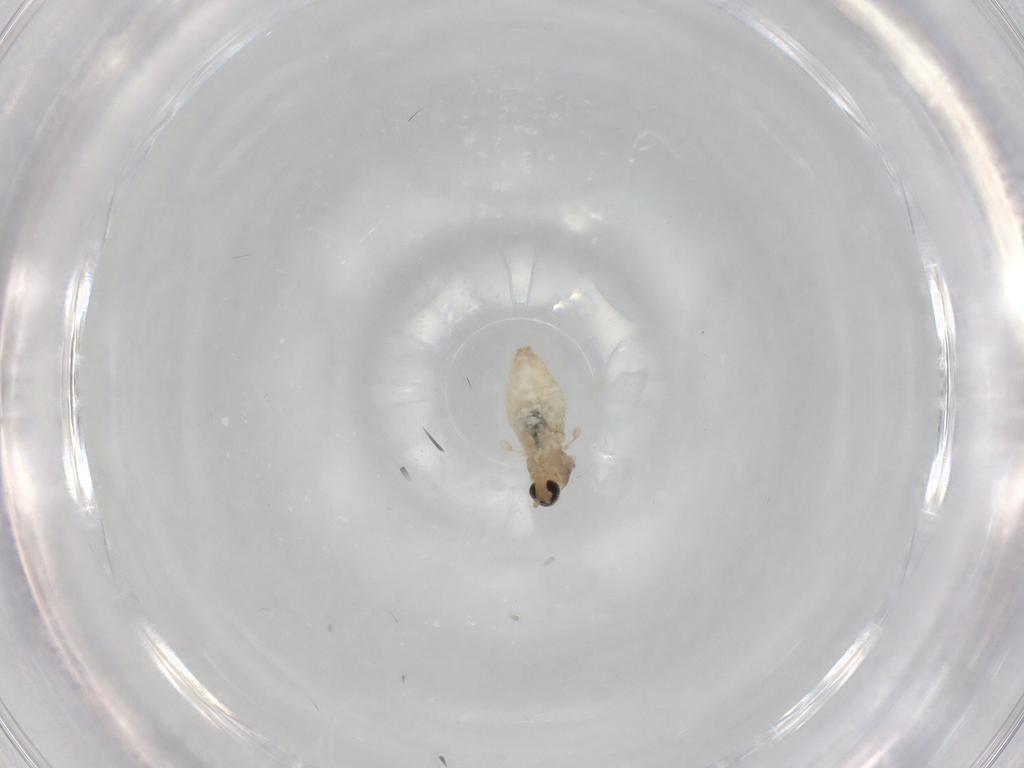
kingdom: Animalia
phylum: Arthropoda
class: Insecta
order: Diptera
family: Cecidomyiidae
